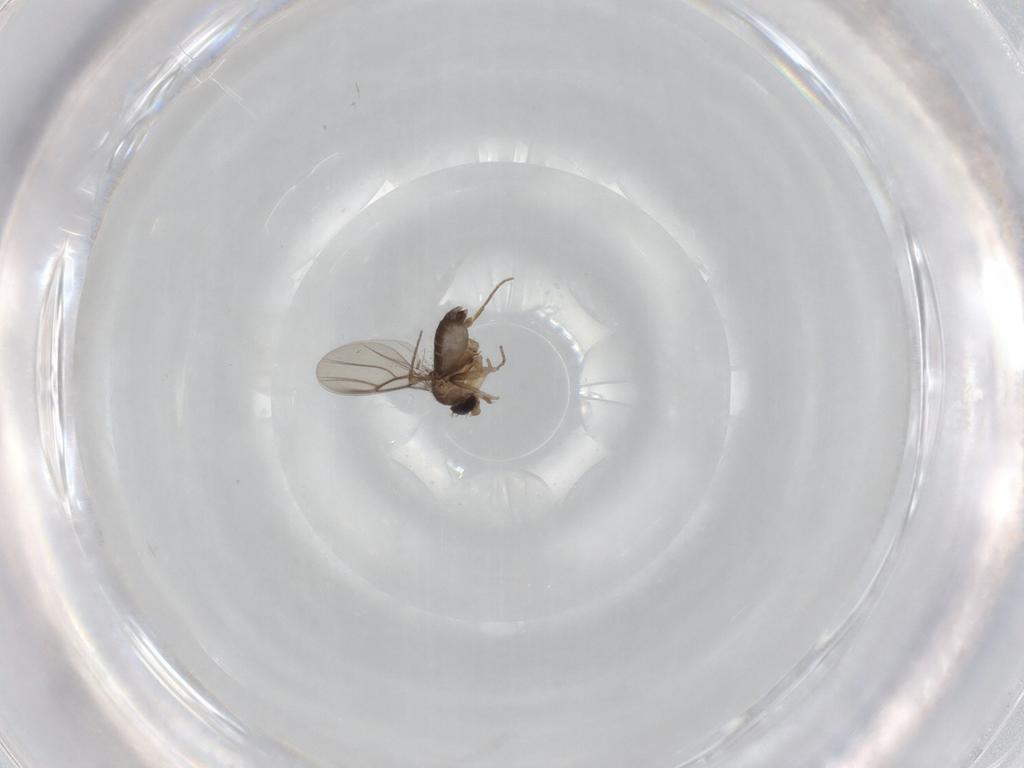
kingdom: Animalia
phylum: Arthropoda
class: Insecta
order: Diptera
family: Phoridae
